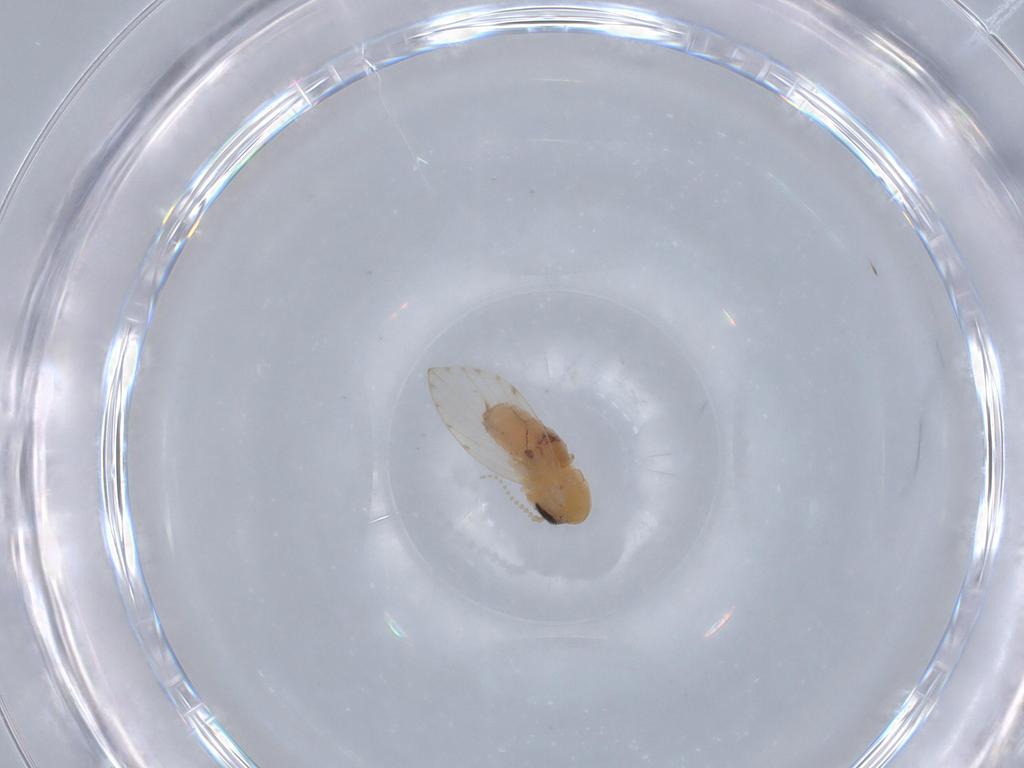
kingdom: Animalia
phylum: Arthropoda
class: Insecta
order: Diptera
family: Psychodidae
